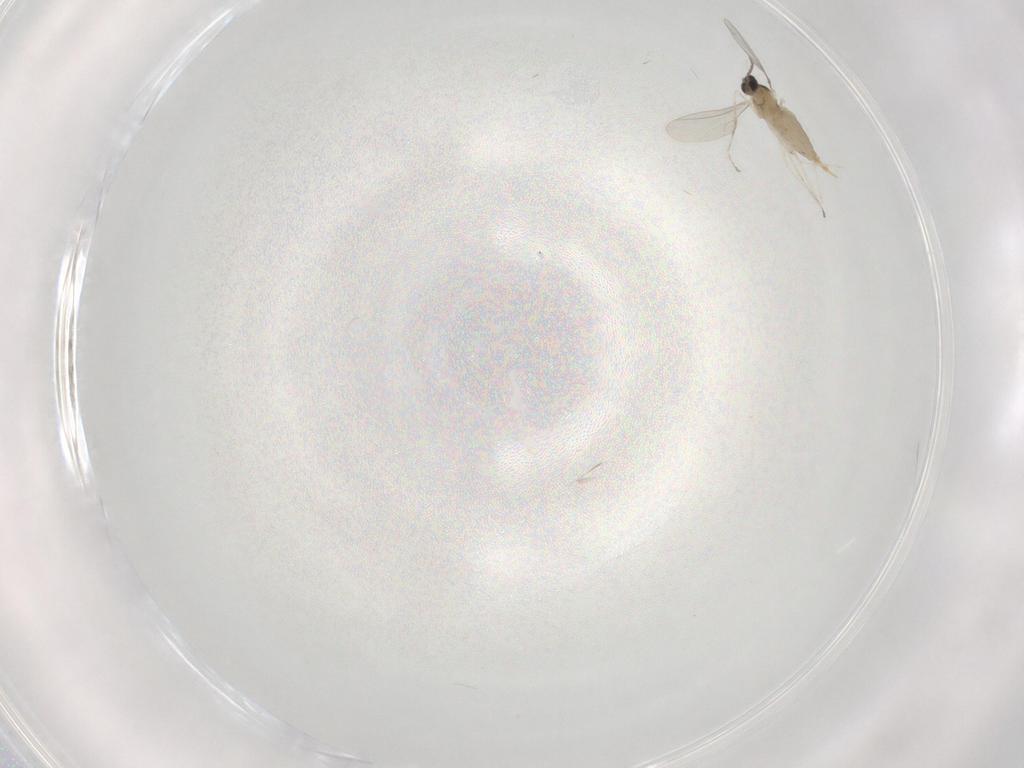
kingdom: Animalia
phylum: Arthropoda
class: Insecta
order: Diptera
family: Cecidomyiidae
